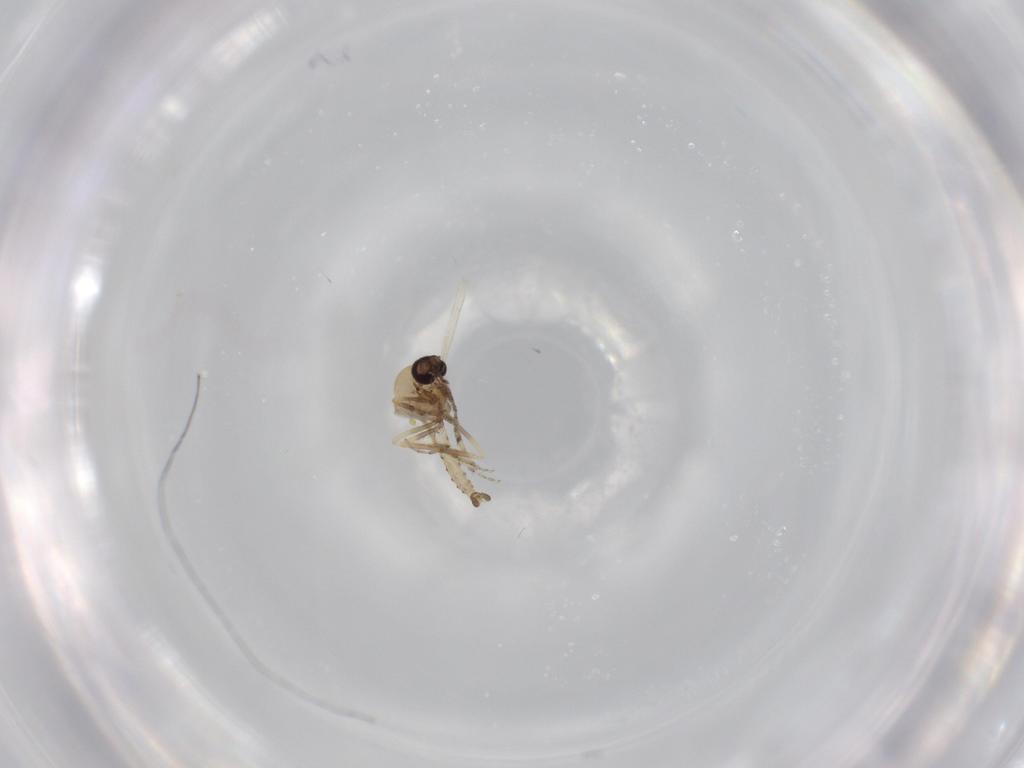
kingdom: Animalia
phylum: Arthropoda
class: Insecta
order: Diptera
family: Ceratopogonidae
